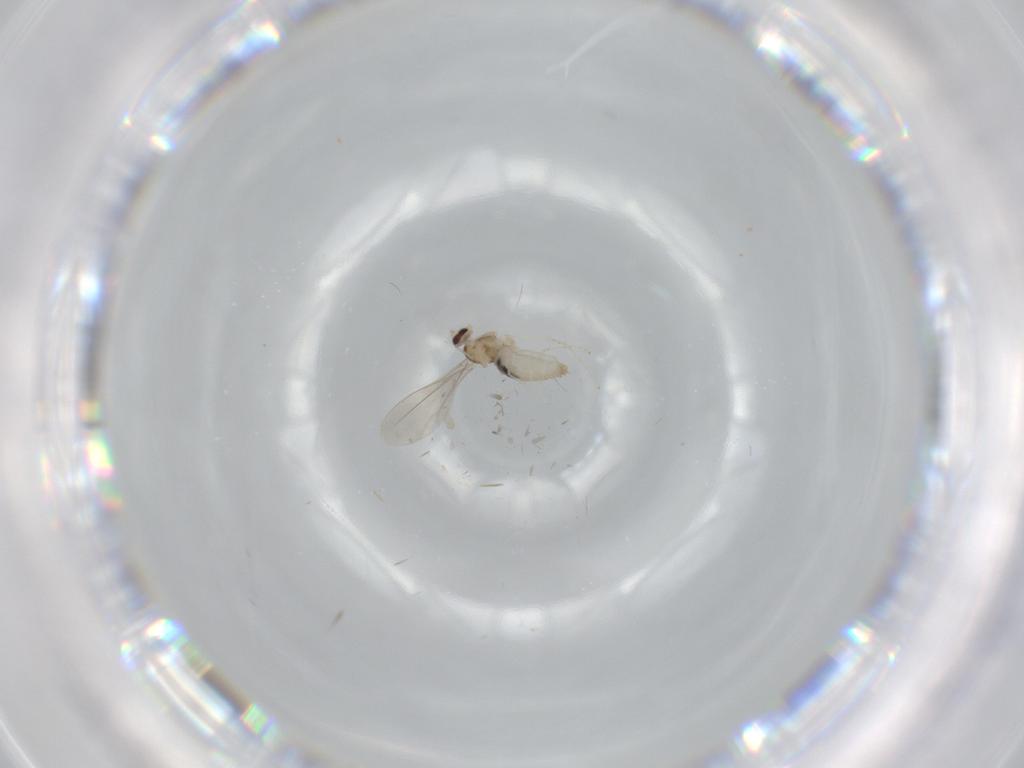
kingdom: Animalia
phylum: Arthropoda
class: Insecta
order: Diptera
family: Cecidomyiidae
